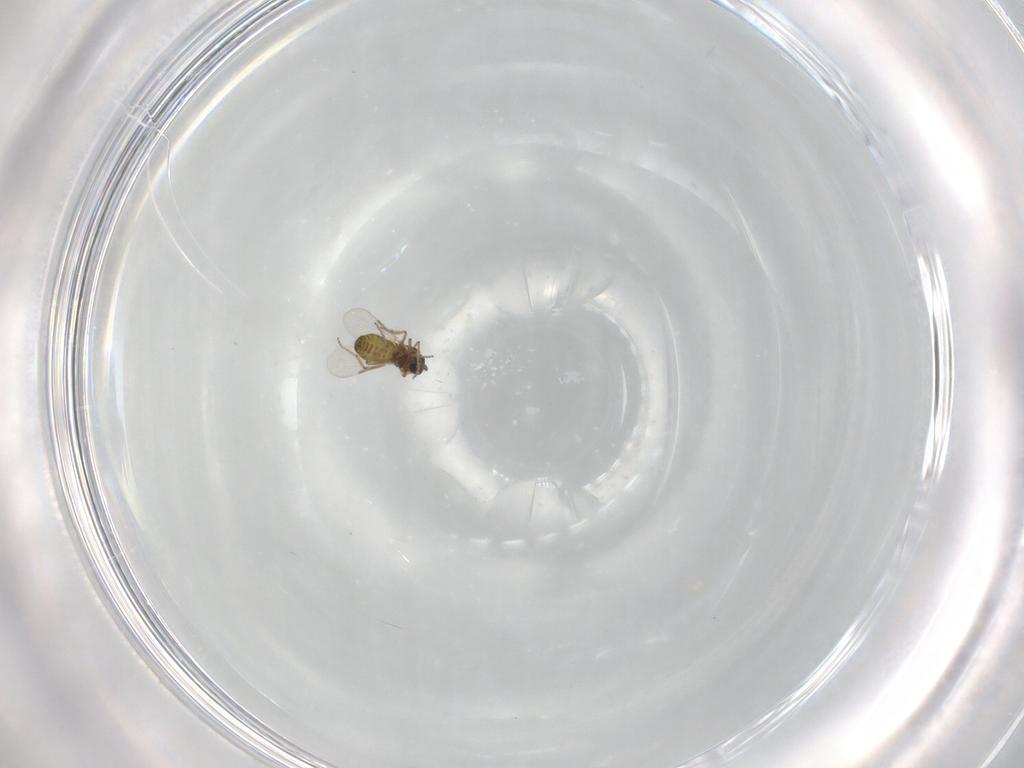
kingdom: Animalia
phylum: Arthropoda
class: Insecta
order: Diptera
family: Ceratopogonidae
